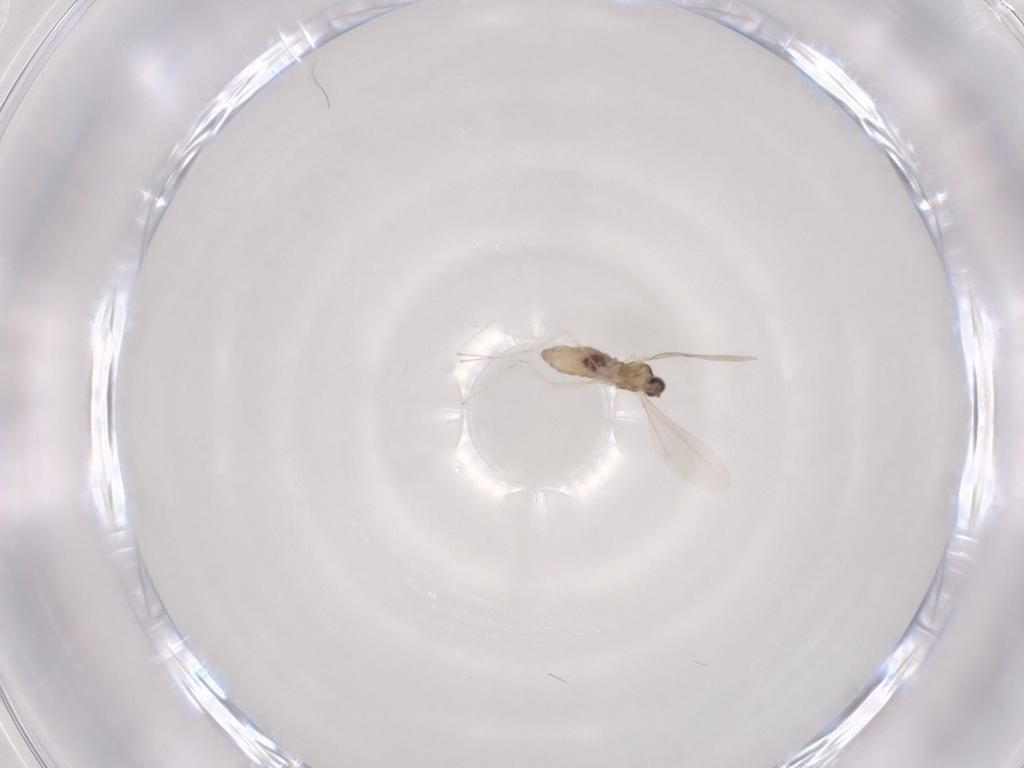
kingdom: Animalia
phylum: Arthropoda
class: Insecta
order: Diptera
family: Cecidomyiidae
